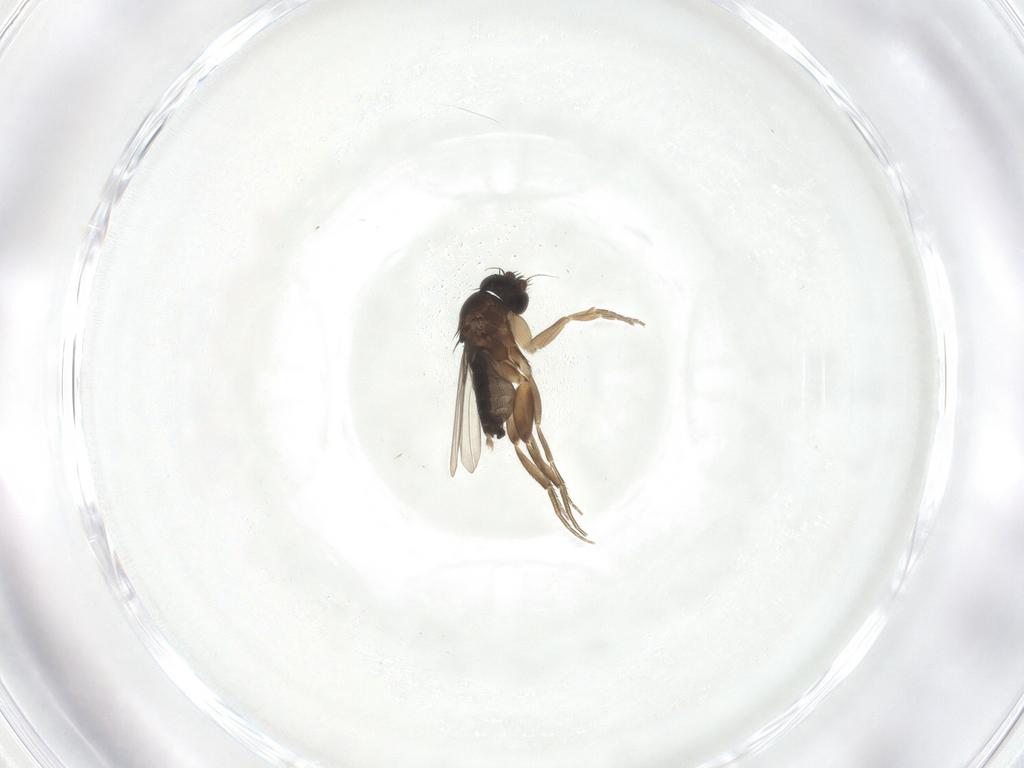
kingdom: Animalia
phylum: Arthropoda
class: Insecta
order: Diptera
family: Phoridae
